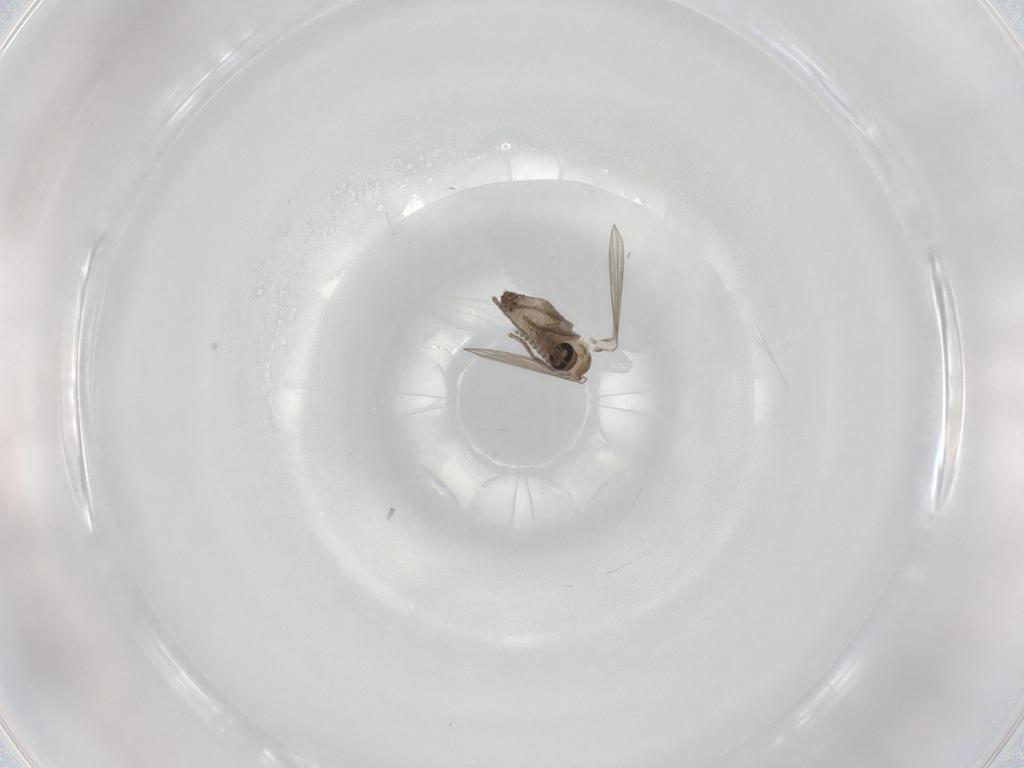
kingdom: Animalia
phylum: Arthropoda
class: Insecta
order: Diptera
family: Psychodidae
